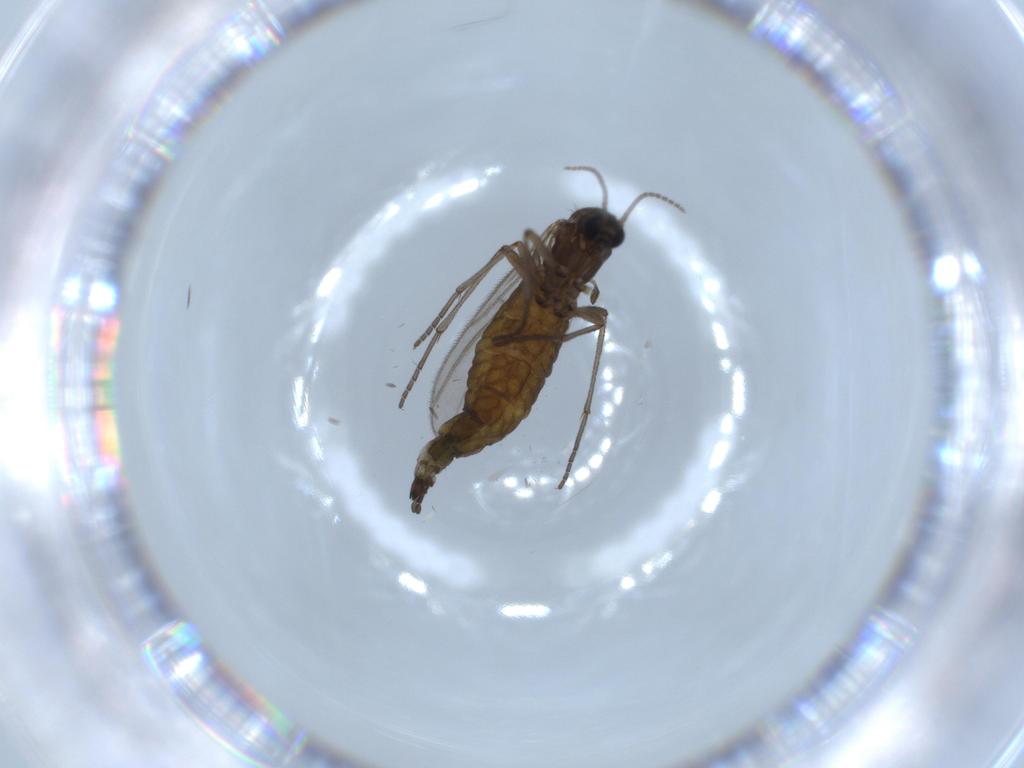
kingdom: Animalia
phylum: Arthropoda
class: Insecta
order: Diptera
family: Sciaridae
